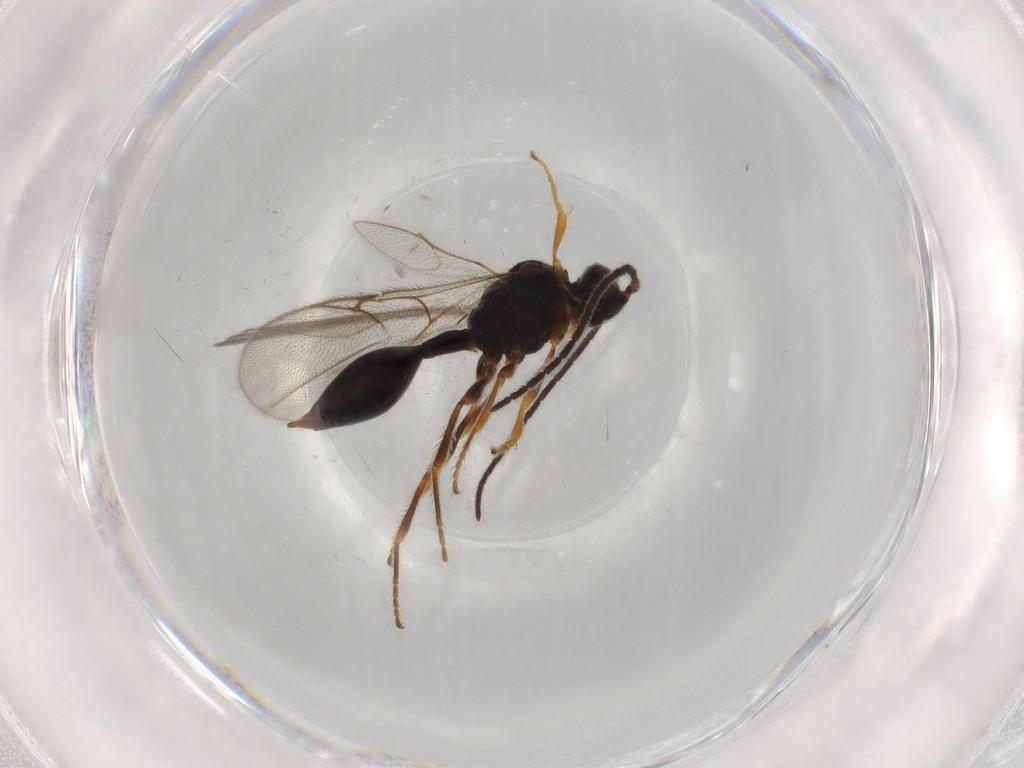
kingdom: Animalia
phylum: Arthropoda
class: Insecta
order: Hymenoptera
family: Diapriidae
